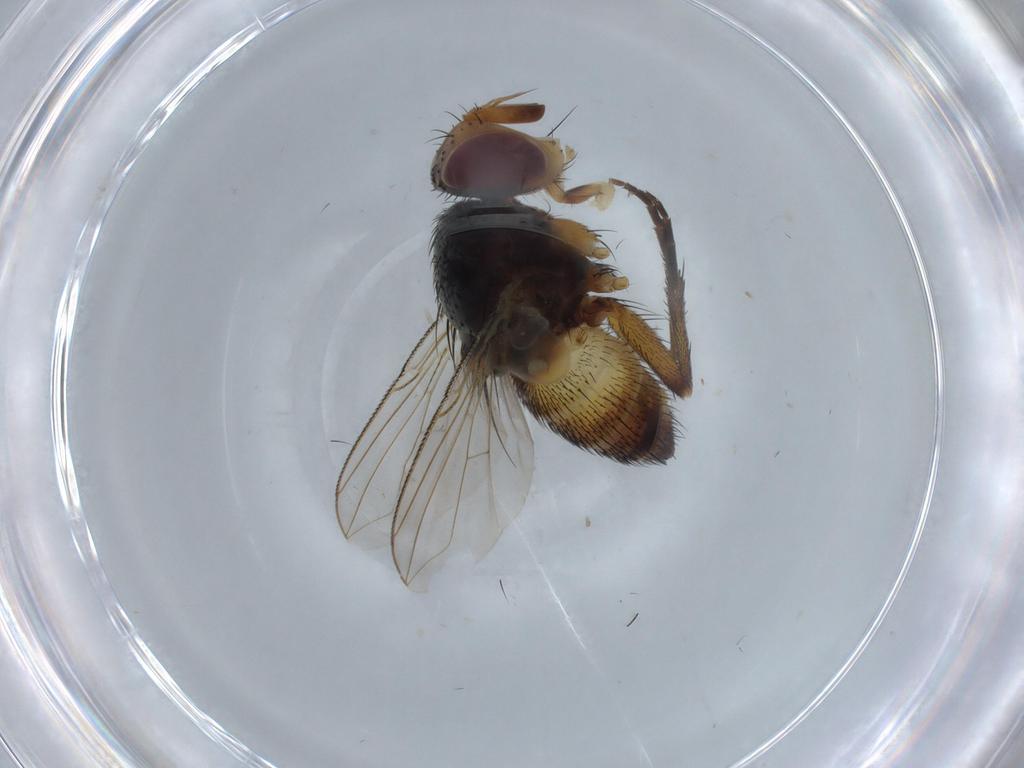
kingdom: Animalia
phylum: Arthropoda
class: Insecta
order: Diptera
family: Dolichopodidae
